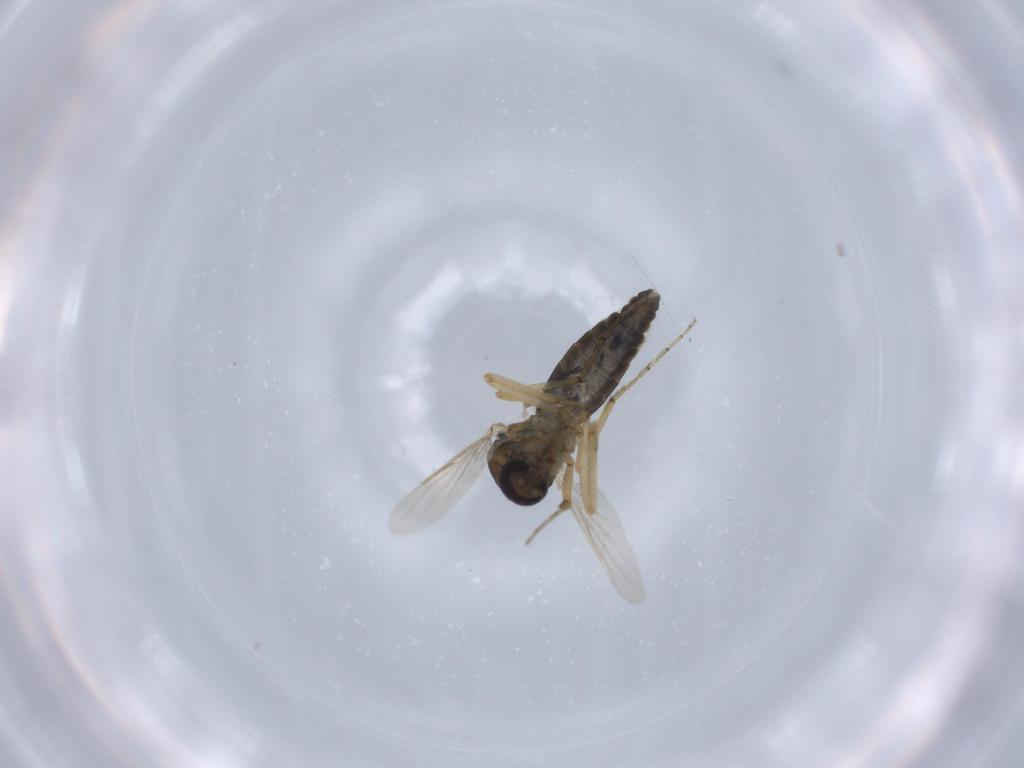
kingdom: Animalia
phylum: Arthropoda
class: Insecta
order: Diptera
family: Ceratopogonidae
